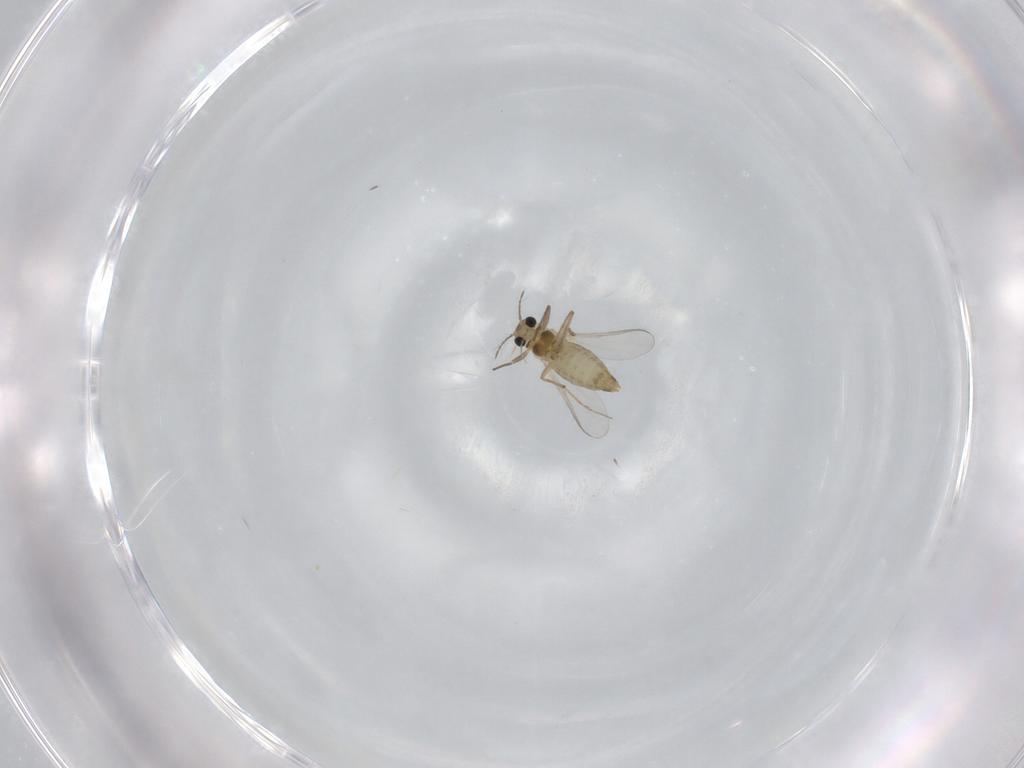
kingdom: Animalia
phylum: Arthropoda
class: Insecta
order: Diptera
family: Chironomidae
